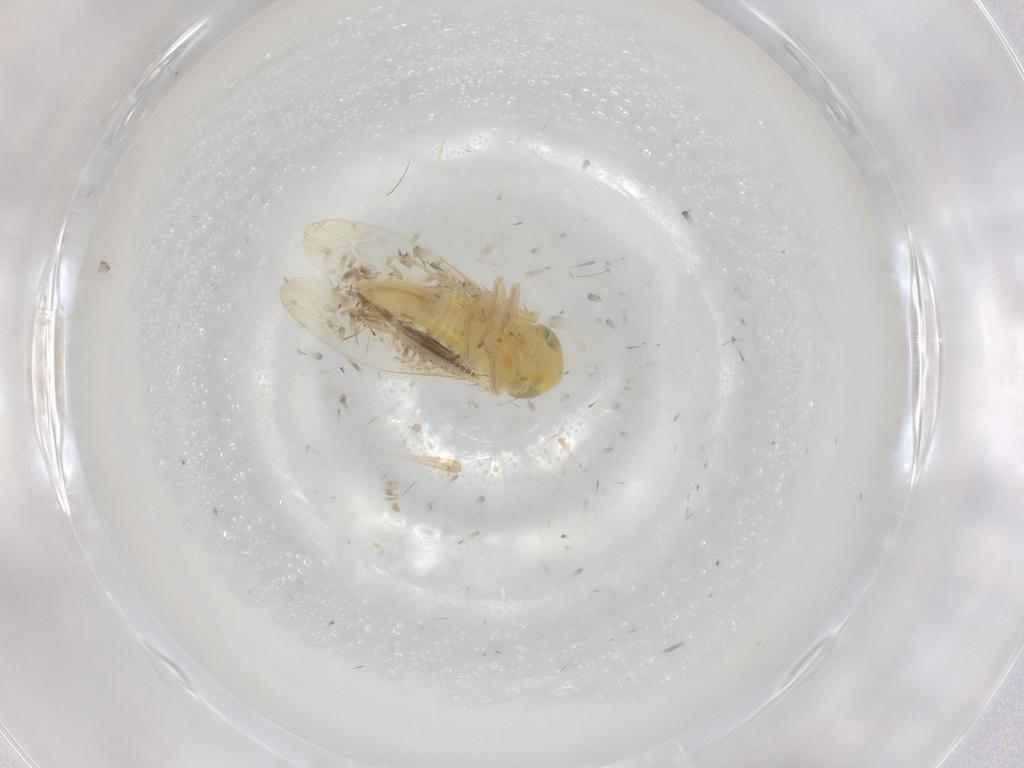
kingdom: Animalia
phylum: Arthropoda
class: Insecta
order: Hemiptera
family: Cicadellidae
